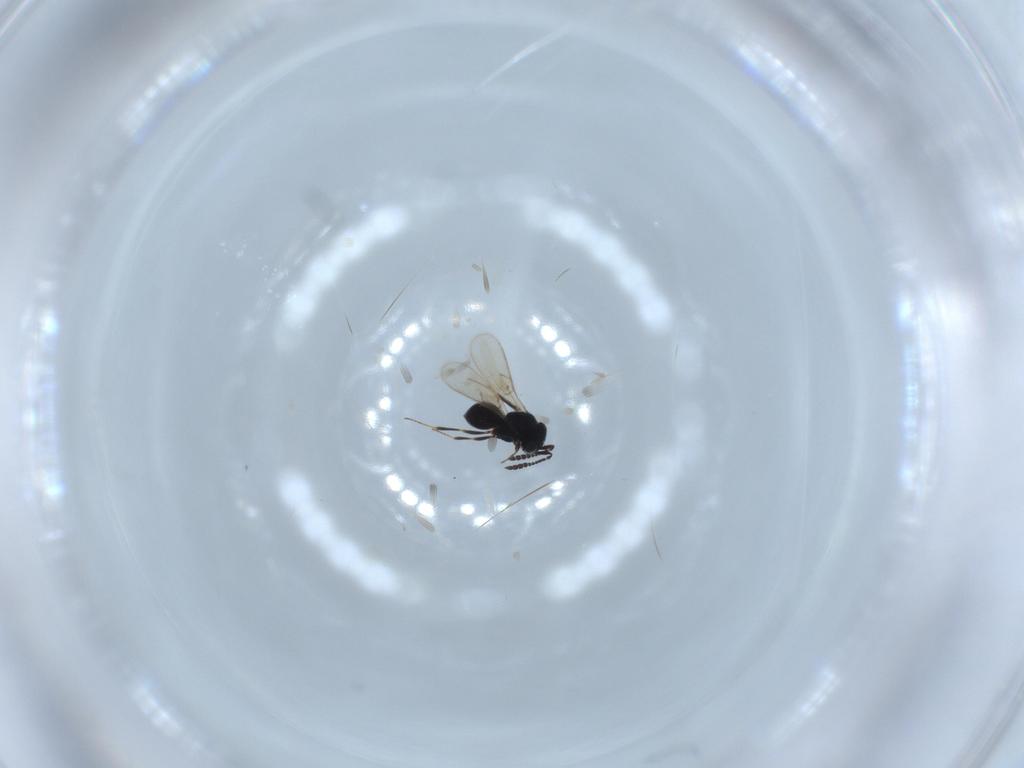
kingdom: Animalia
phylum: Arthropoda
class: Insecta
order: Hymenoptera
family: Scelionidae
